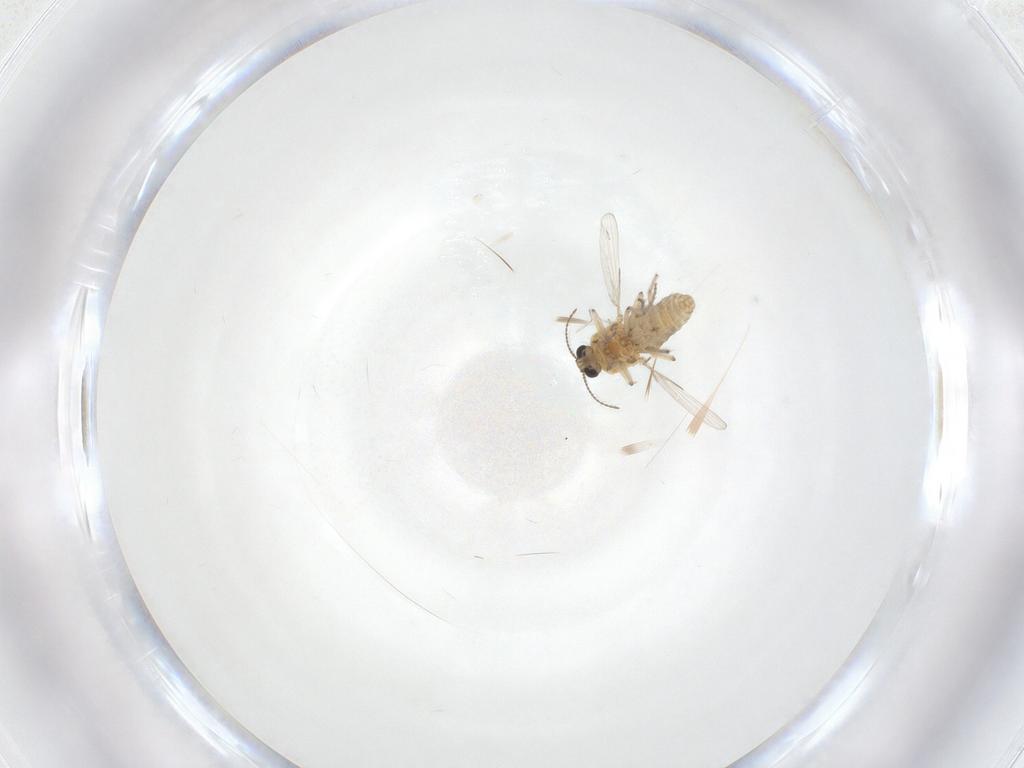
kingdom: Animalia
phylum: Arthropoda
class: Insecta
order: Diptera
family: Ceratopogonidae
